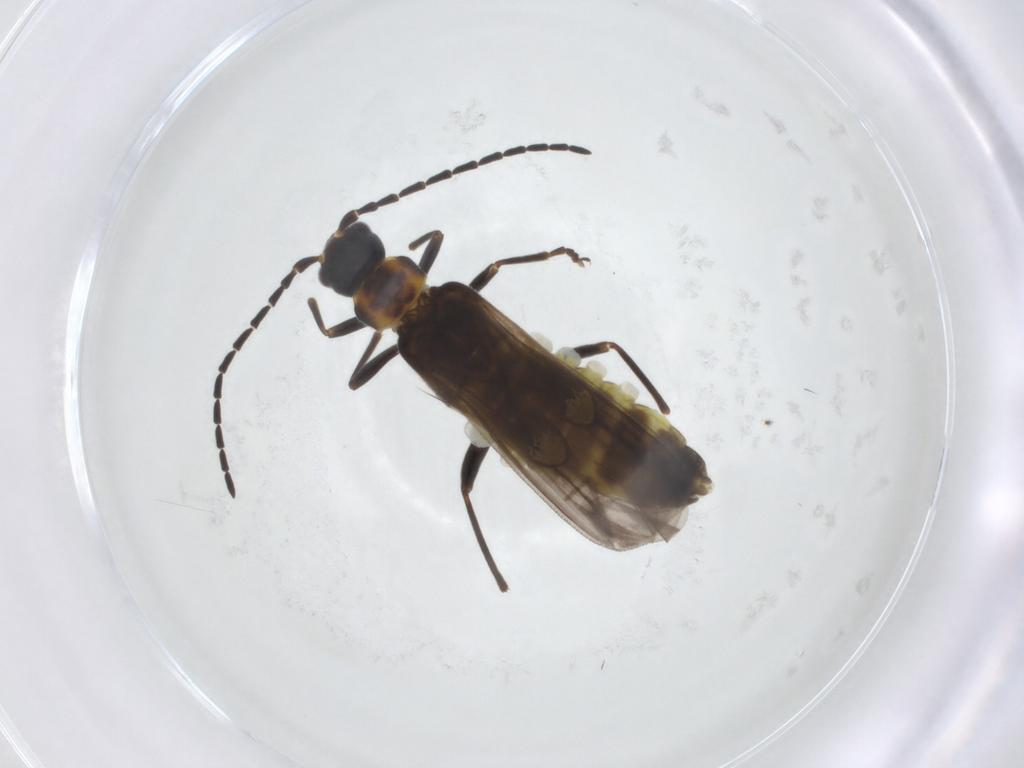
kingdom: Animalia
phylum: Arthropoda
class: Insecta
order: Coleoptera
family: Cantharidae
